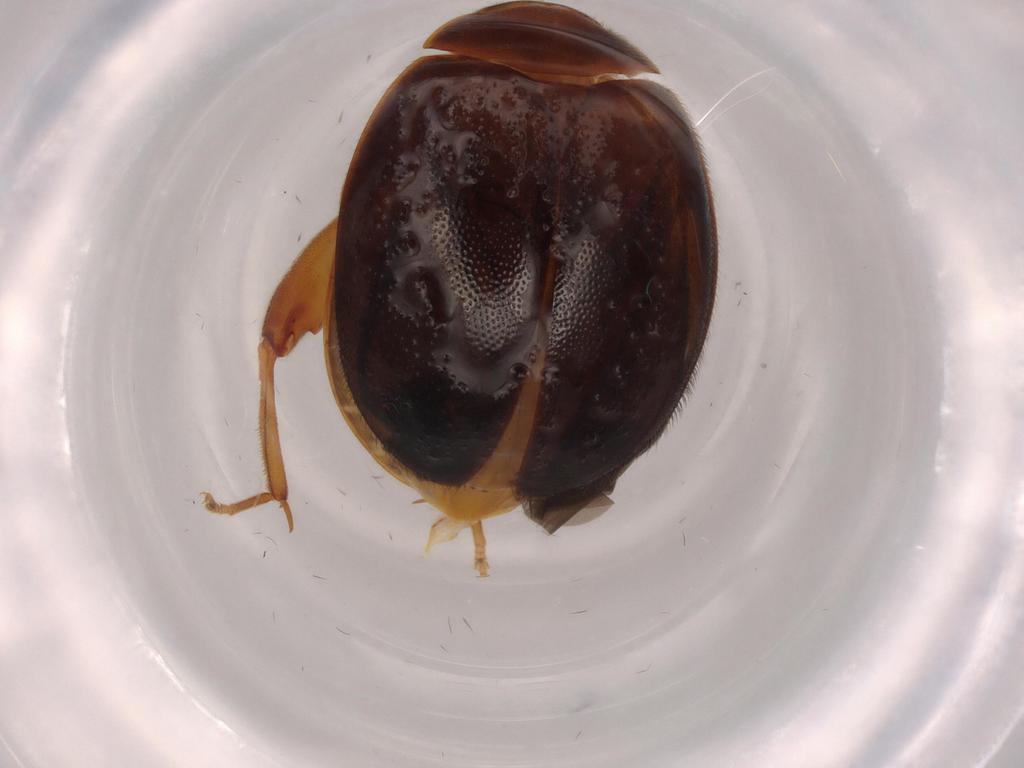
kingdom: Animalia
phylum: Arthropoda
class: Insecta
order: Coleoptera
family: Scirtidae
